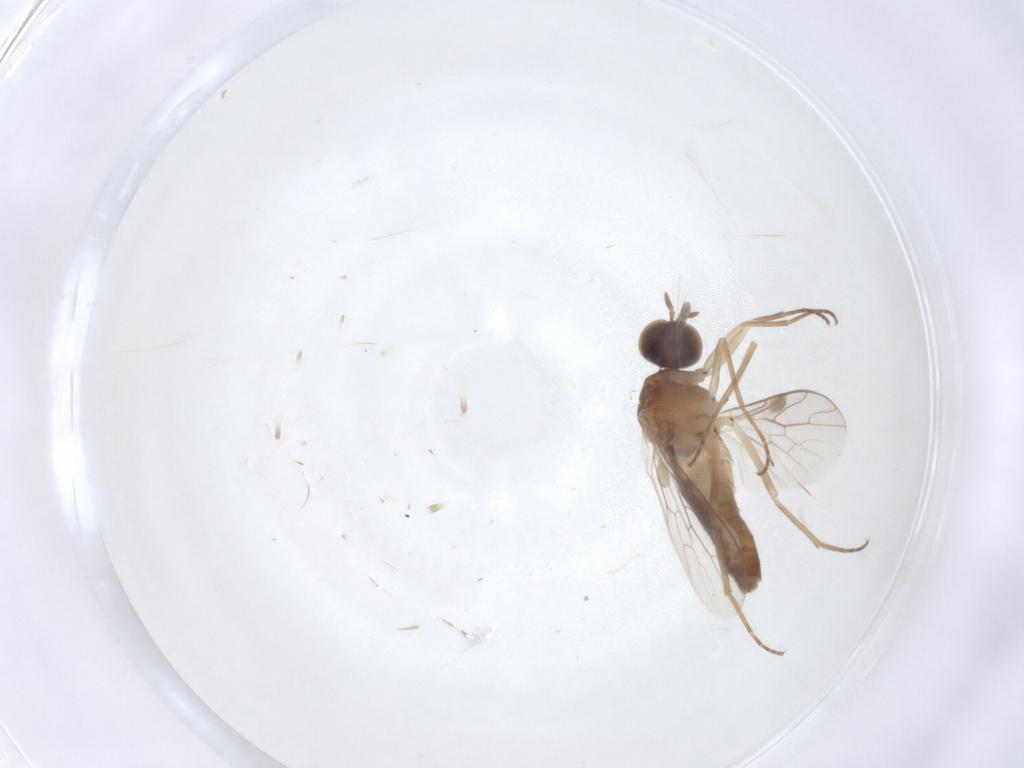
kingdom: Animalia
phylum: Arthropoda
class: Insecta
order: Diptera
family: Scenopinidae
